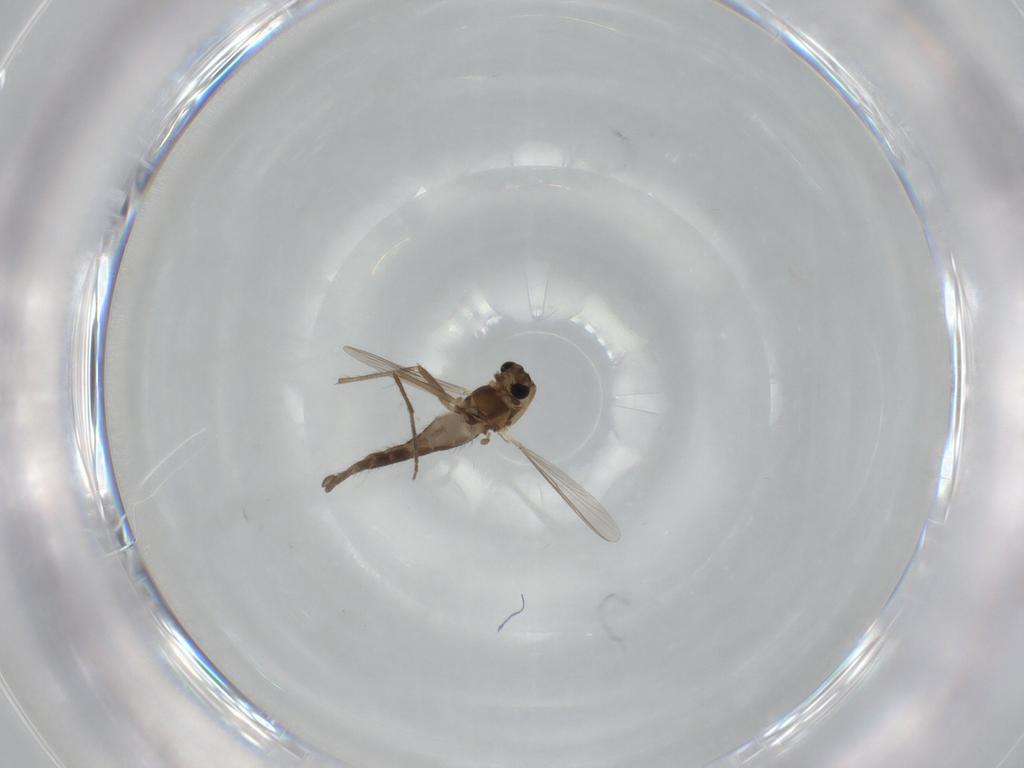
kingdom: Animalia
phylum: Arthropoda
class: Insecta
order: Diptera
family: Chironomidae
